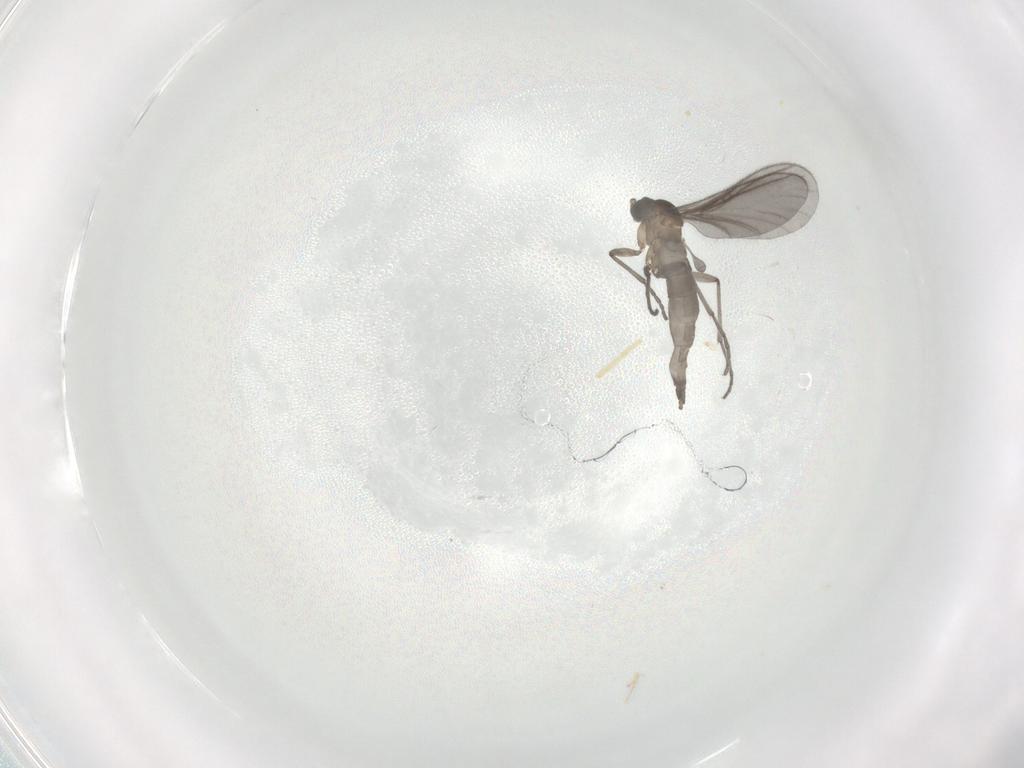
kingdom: Animalia
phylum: Arthropoda
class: Insecta
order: Diptera
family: Sciaridae
